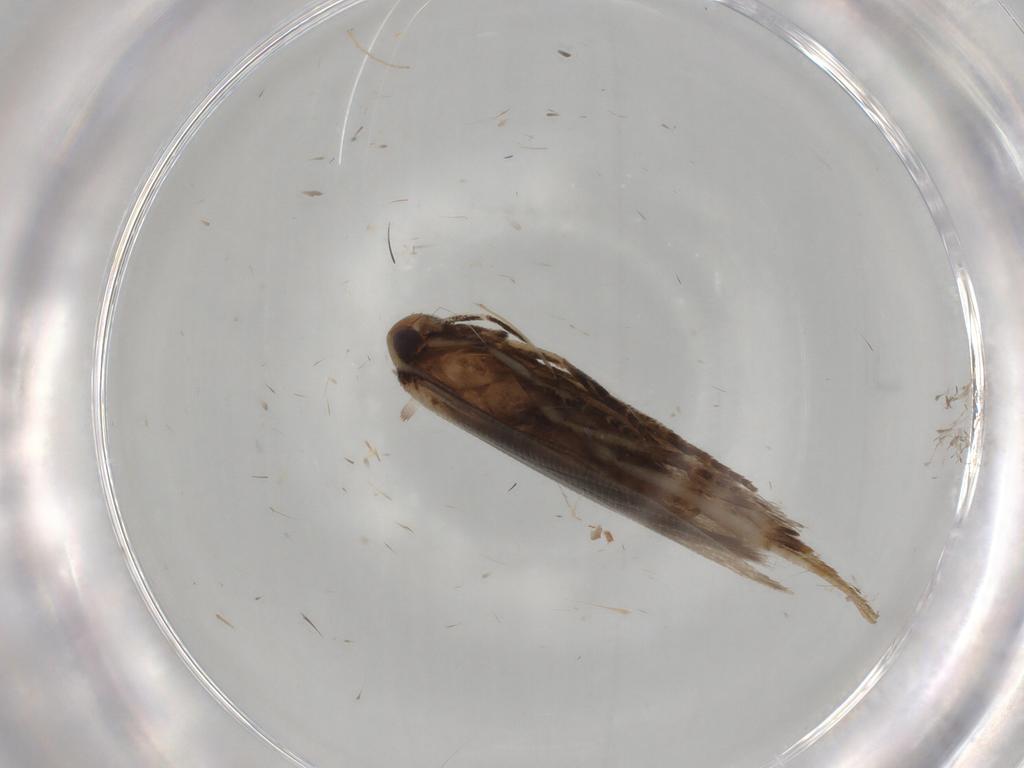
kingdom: Animalia
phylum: Arthropoda
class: Insecta
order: Lepidoptera
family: Cosmopterigidae
